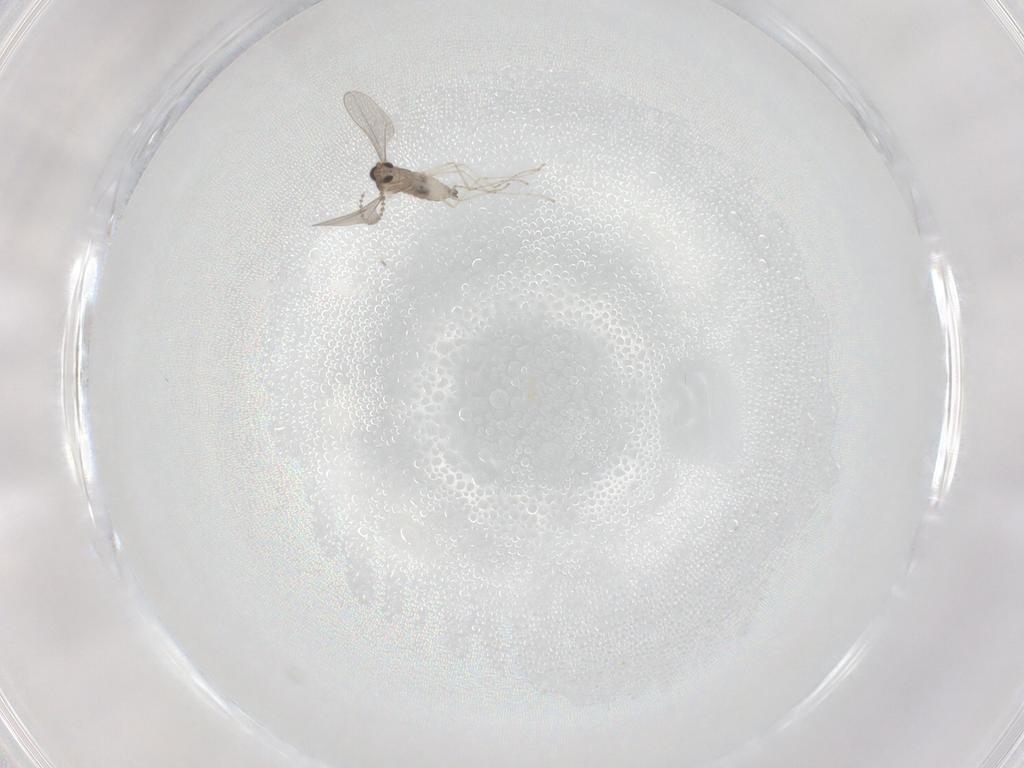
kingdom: Animalia
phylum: Arthropoda
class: Insecta
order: Diptera
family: Cecidomyiidae
